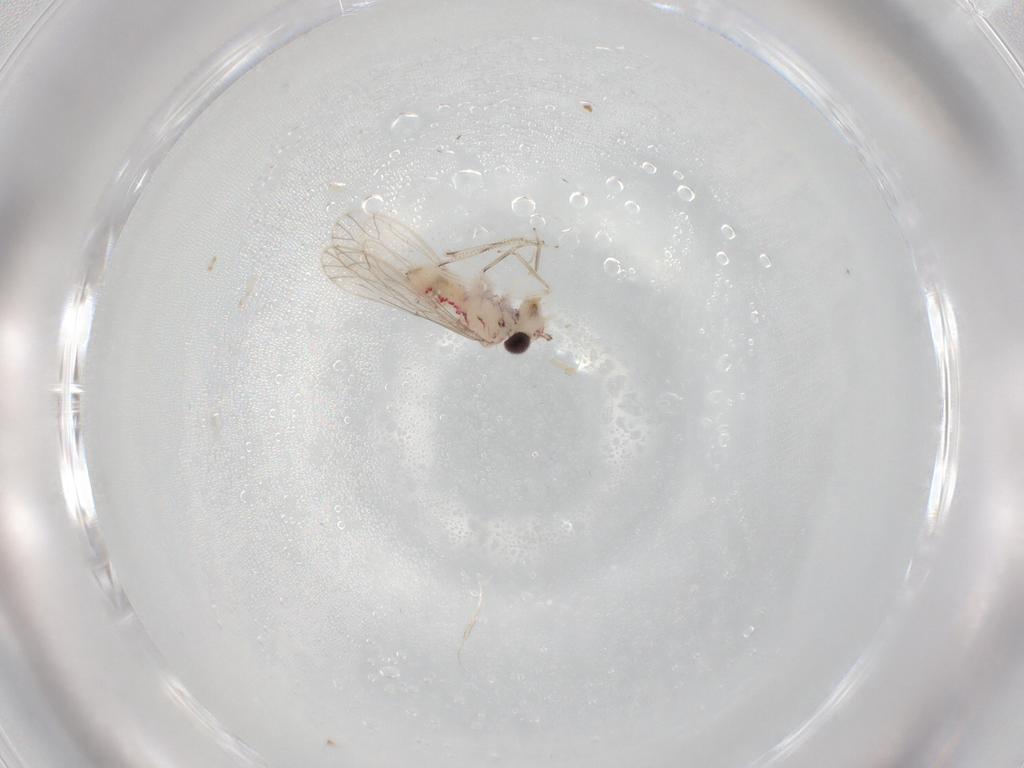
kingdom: Animalia
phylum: Arthropoda
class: Insecta
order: Psocodea
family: Caeciliusidae
